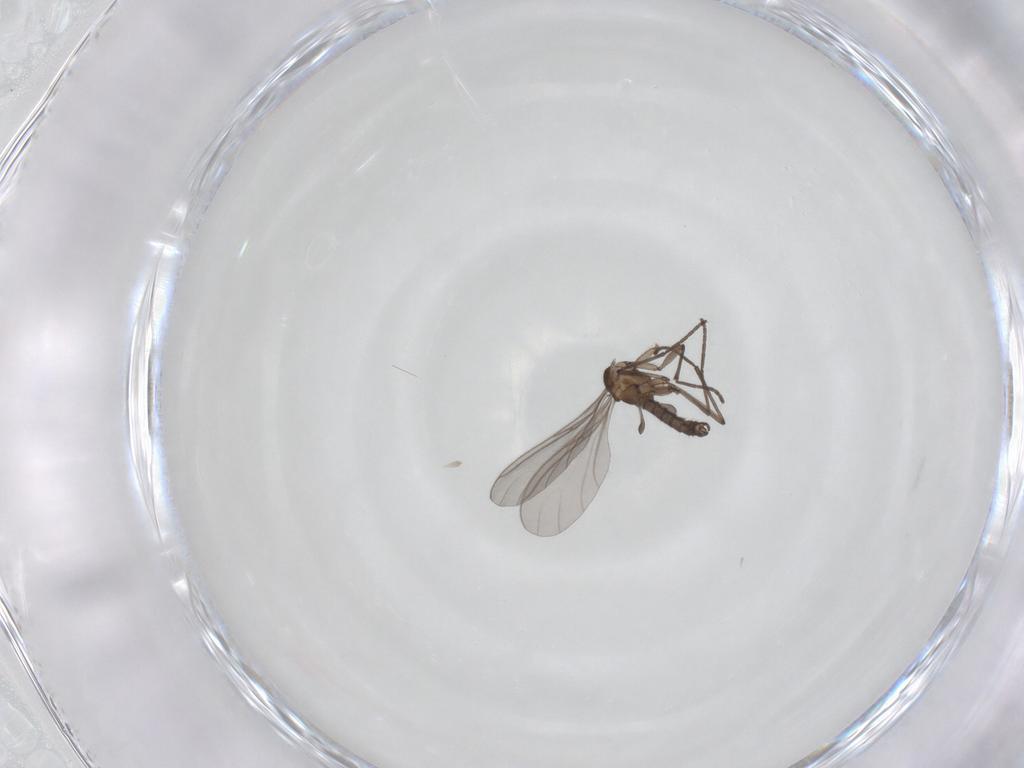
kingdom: Animalia
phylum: Arthropoda
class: Insecta
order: Diptera
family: Sciaridae
